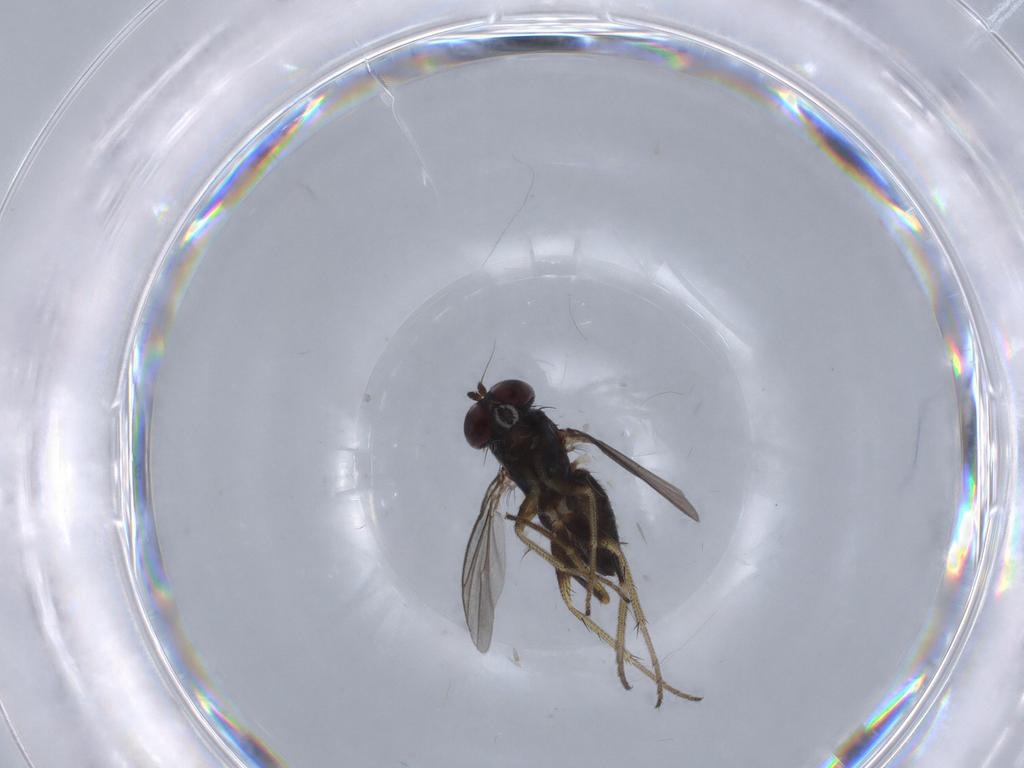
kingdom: Animalia
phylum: Arthropoda
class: Insecta
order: Diptera
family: Dolichopodidae
